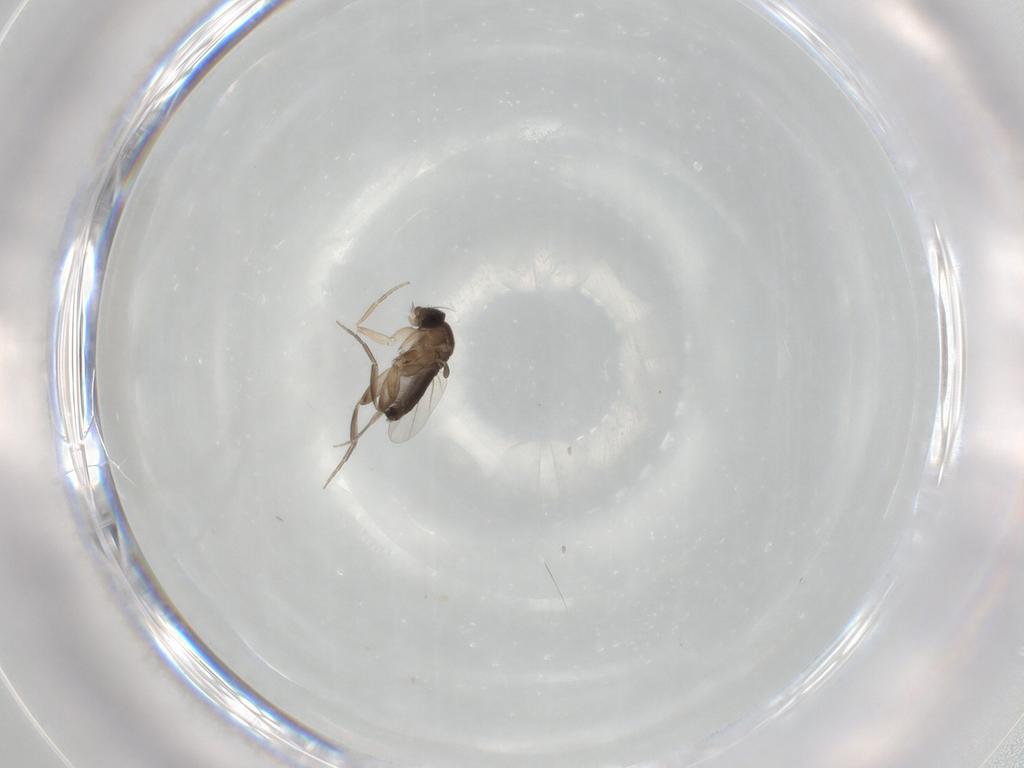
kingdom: Animalia
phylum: Arthropoda
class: Insecta
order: Diptera
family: Phoridae
